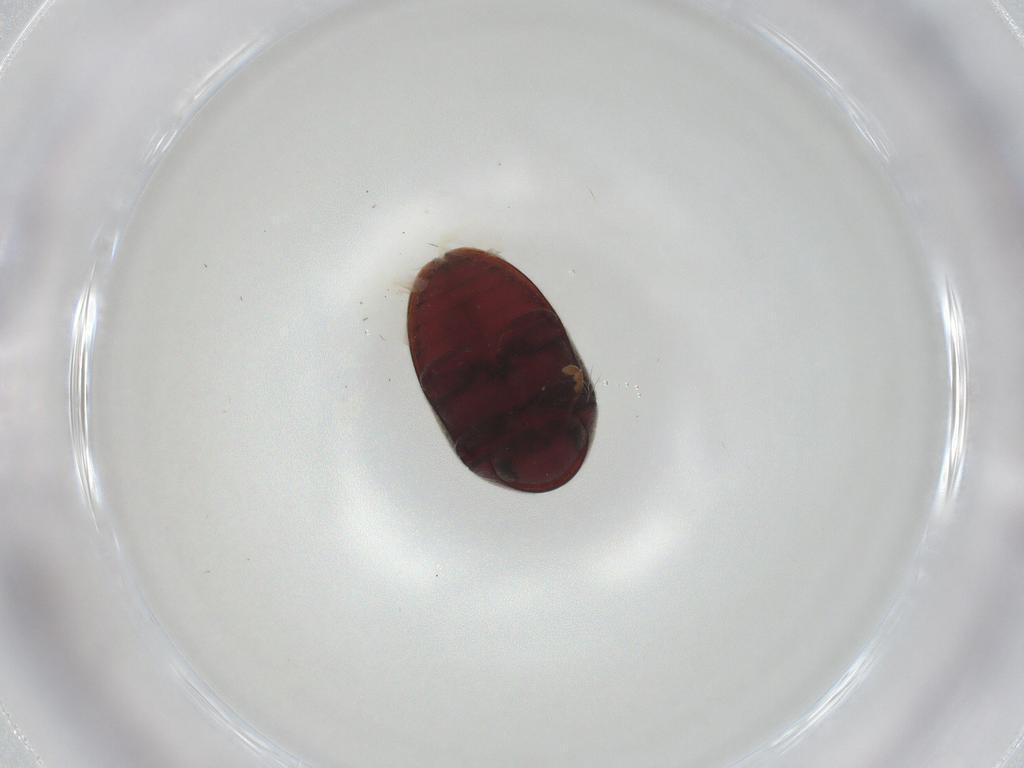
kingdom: Animalia
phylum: Arthropoda
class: Insecta
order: Coleoptera
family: Ptinidae
